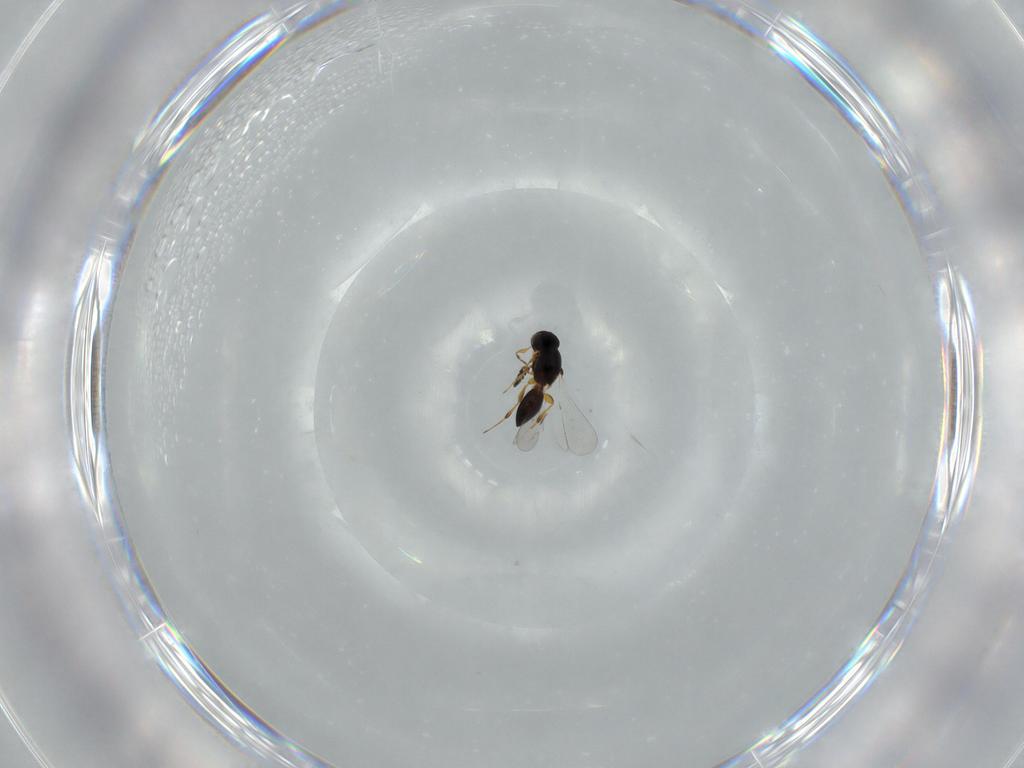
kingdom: Animalia
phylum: Arthropoda
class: Insecta
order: Hymenoptera
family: Platygastridae
